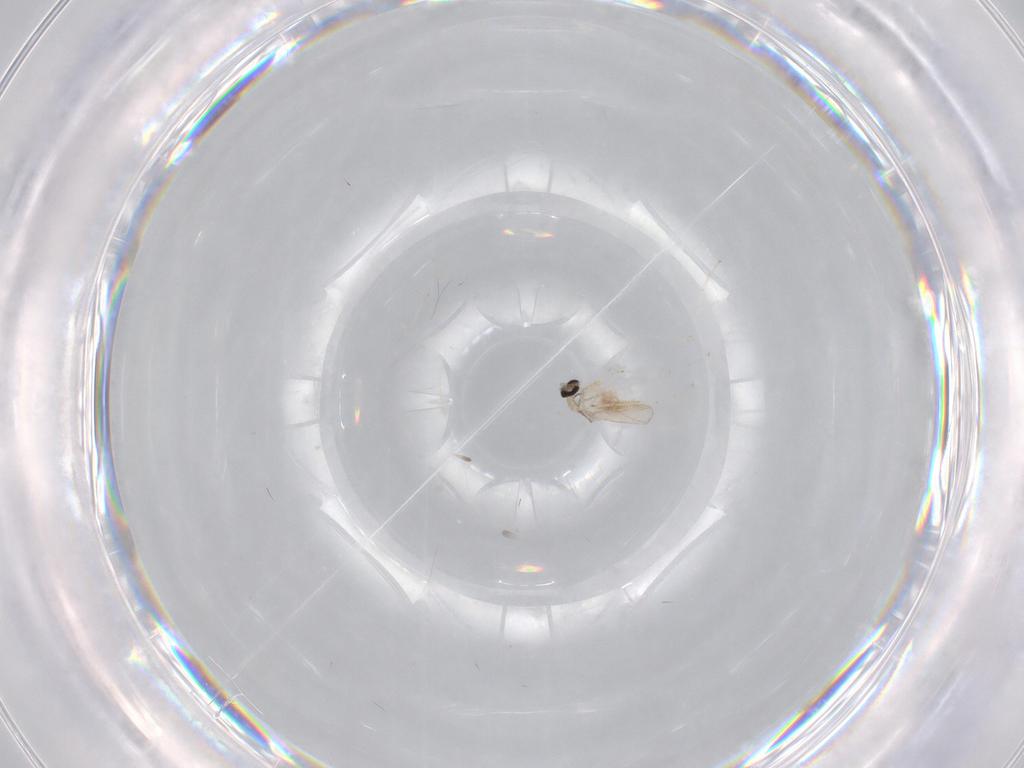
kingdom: Animalia
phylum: Arthropoda
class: Insecta
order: Diptera
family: Cecidomyiidae
